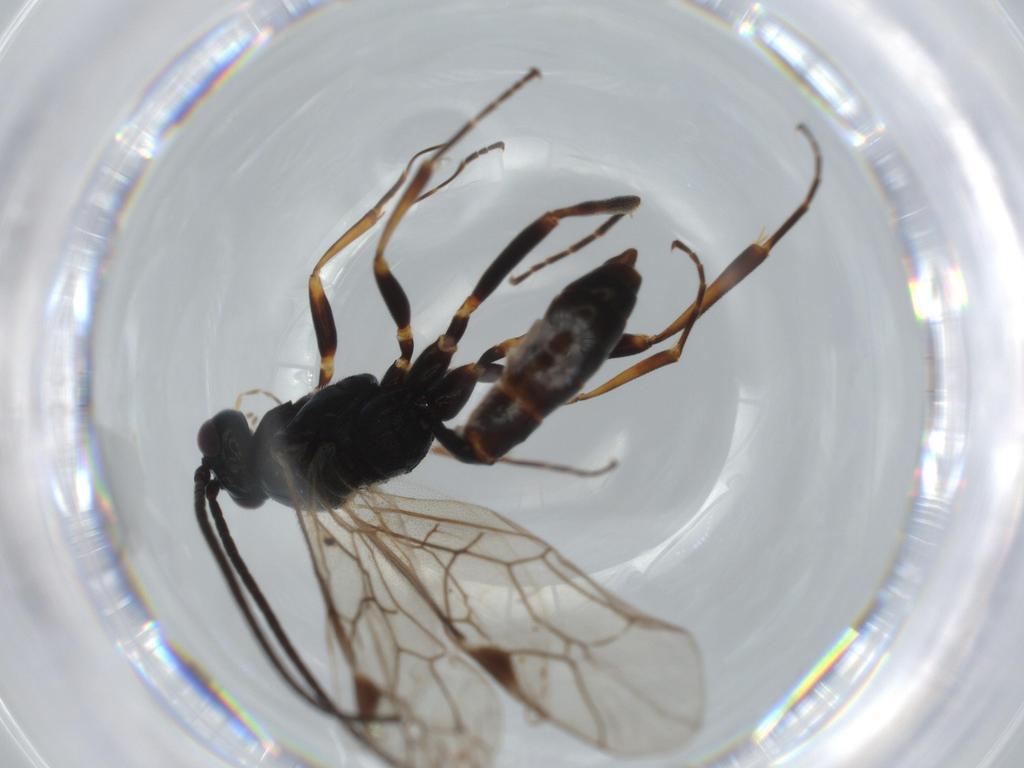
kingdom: Animalia
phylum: Arthropoda
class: Insecta
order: Hymenoptera
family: Ichneumonidae
